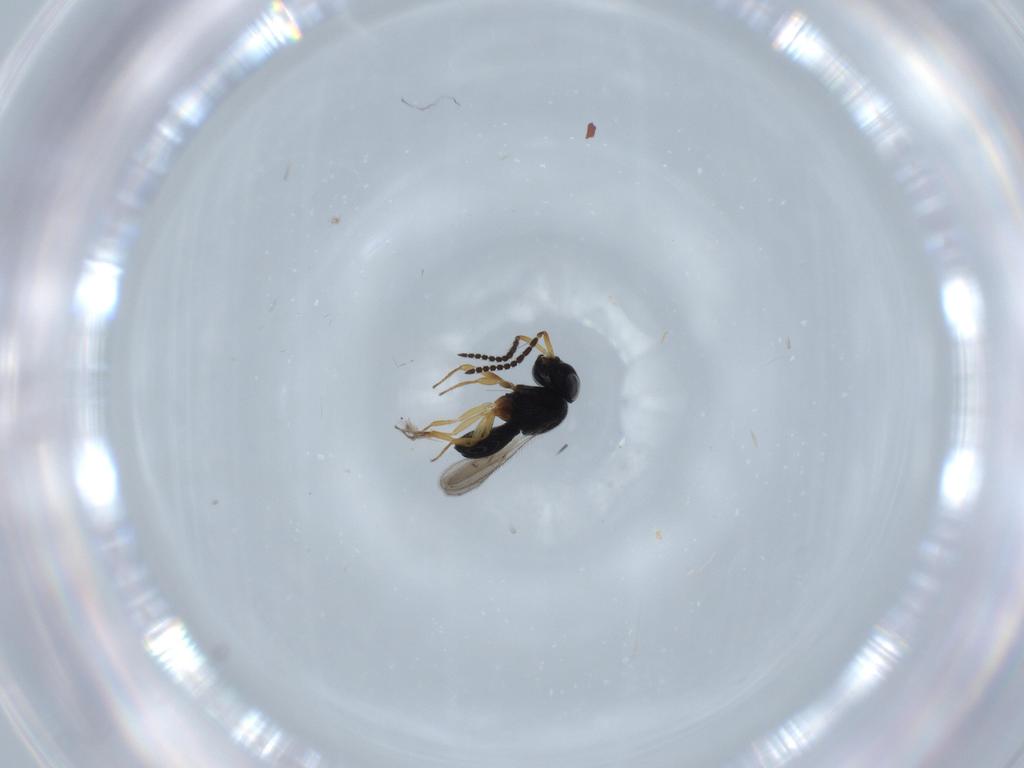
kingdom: Animalia
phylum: Arthropoda
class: Insecta
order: Hymenoptera
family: Scelionidae
